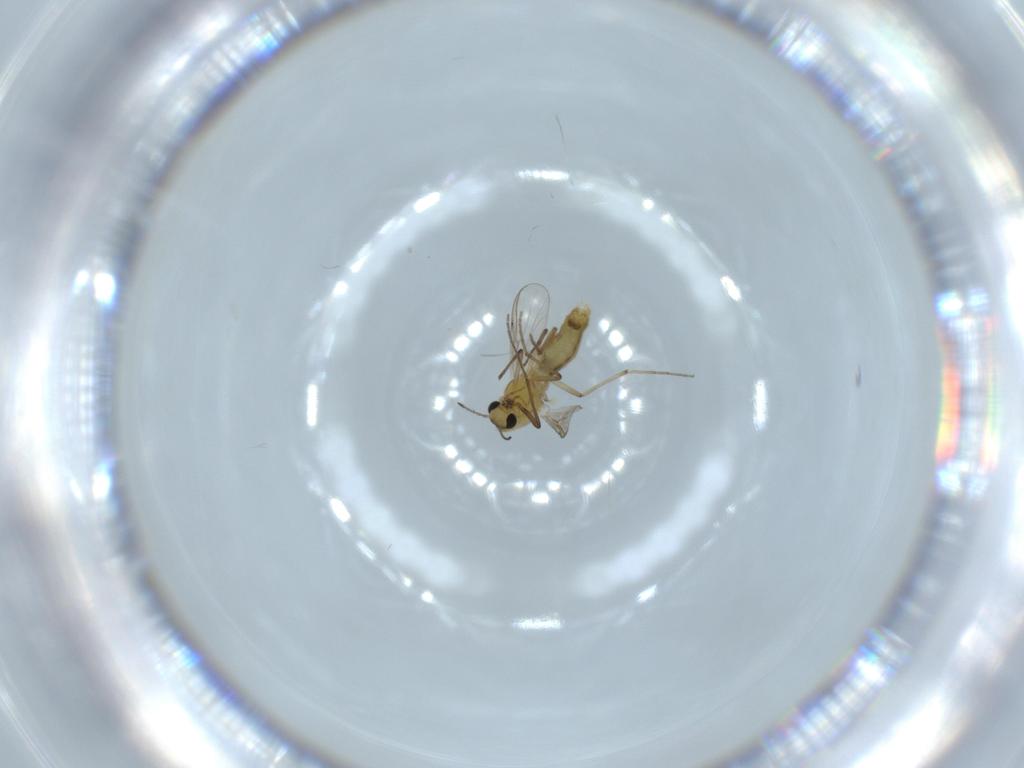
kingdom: Animalia
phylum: Arthropoda
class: Insecta
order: Diptera
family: Chironomidae
